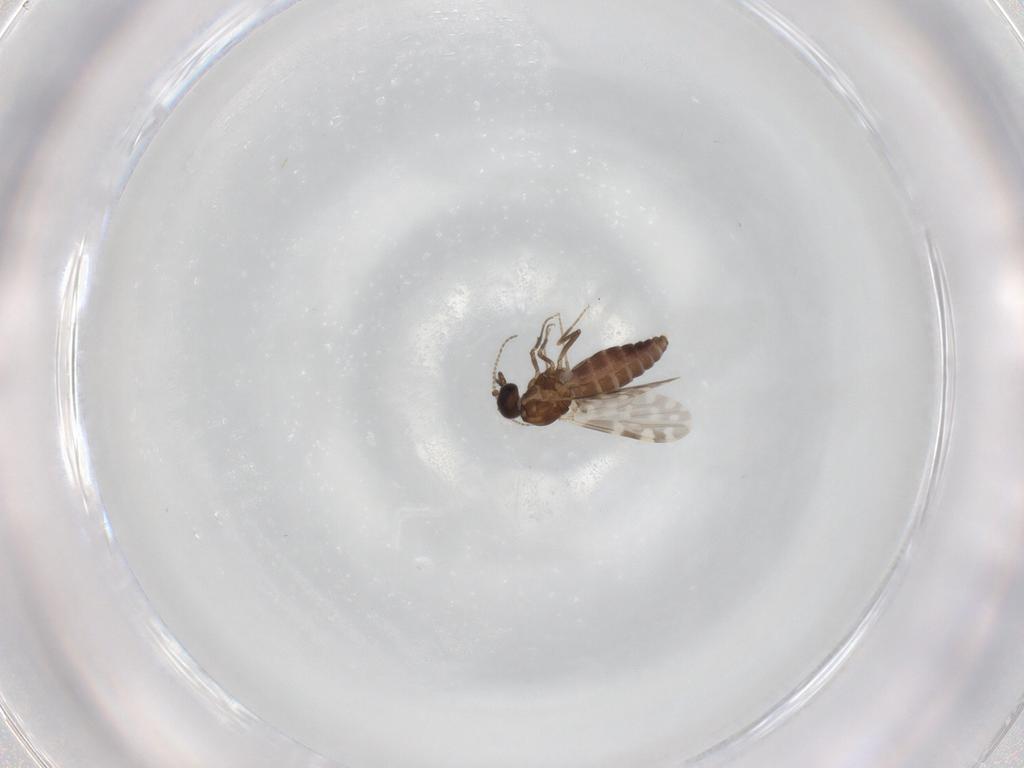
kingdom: Animalia
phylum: Arthropoda
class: Insecta
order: Diptera
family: Ceratopogonidae
